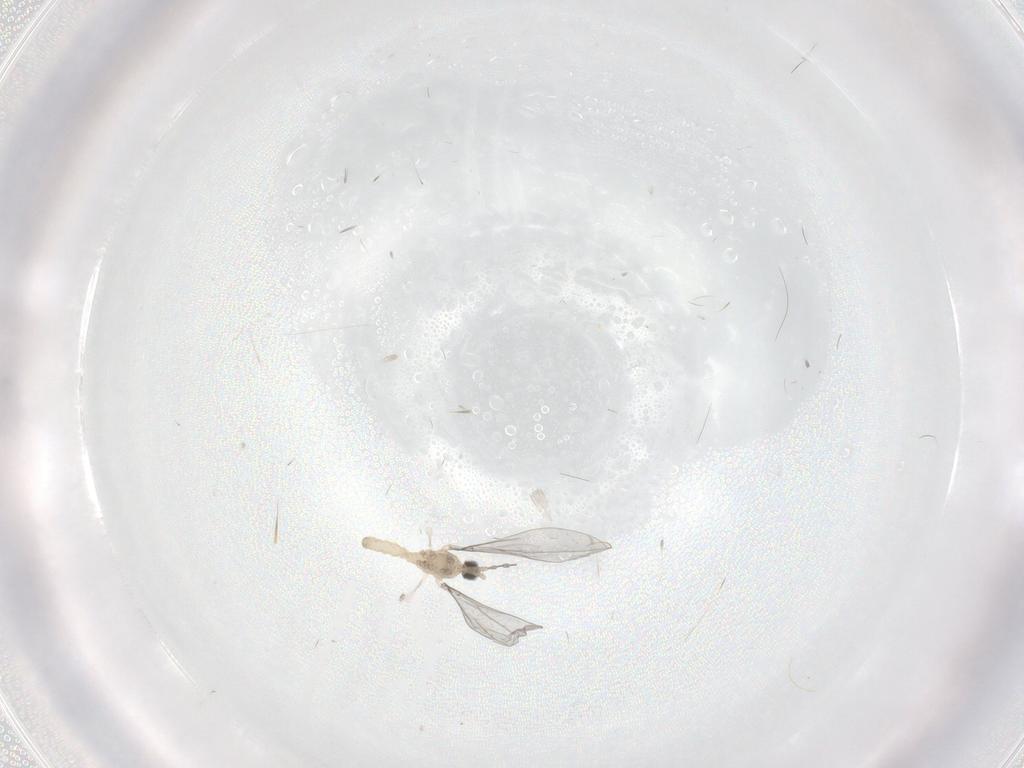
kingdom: Animalia
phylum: Arthropoda
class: Insecta
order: Diptera
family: Cecidomyiidae
